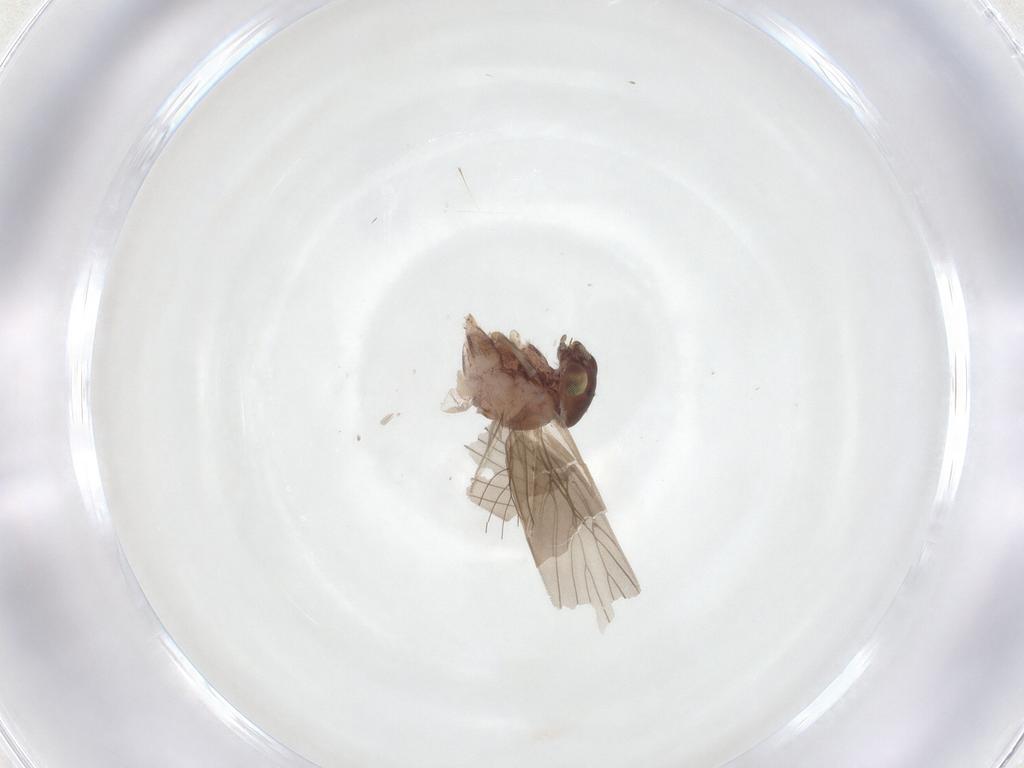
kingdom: Animalia
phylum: Arthropoda
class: Insecta
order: Psocodea
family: Lepidopsocidae
